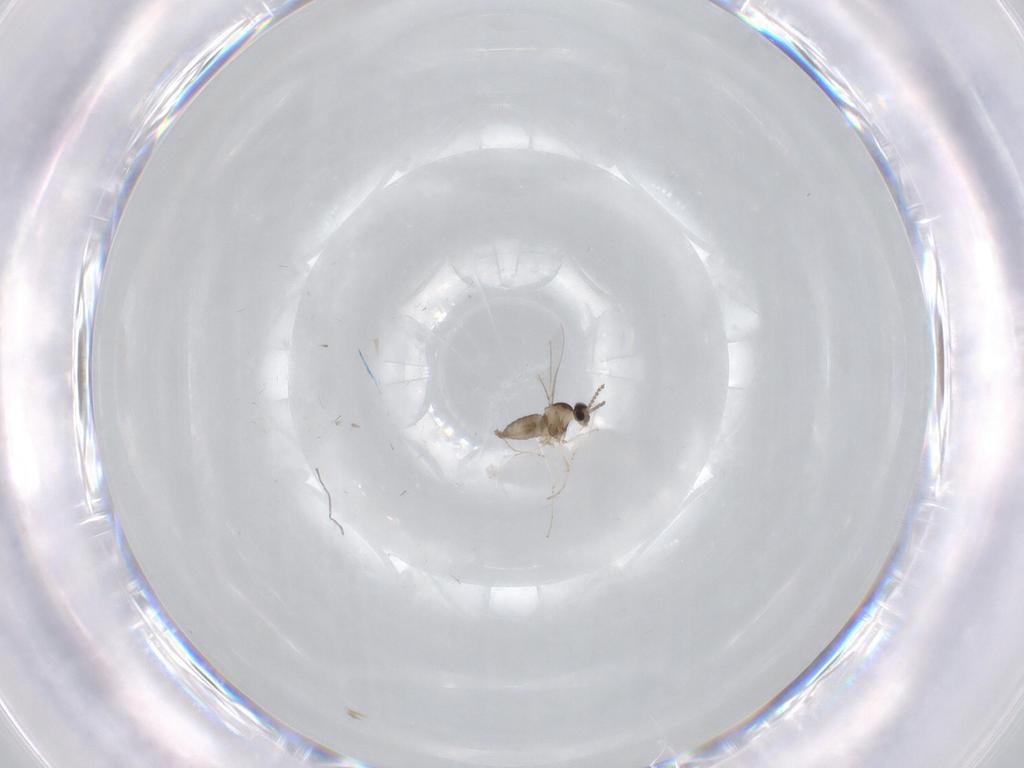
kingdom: Animalia
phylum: Arthropoda
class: Insecta
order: Diptera
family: Cecidomyiidae
